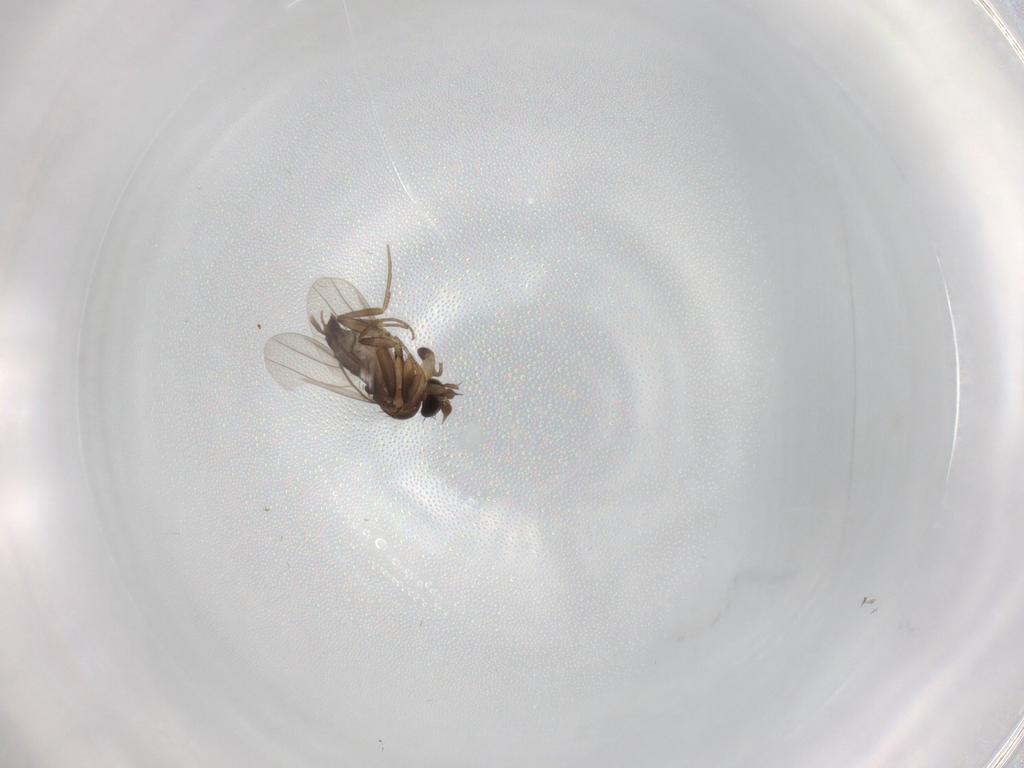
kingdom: Animalia
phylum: Arthropoda
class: Insecta
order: Diptera
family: Phoridae
